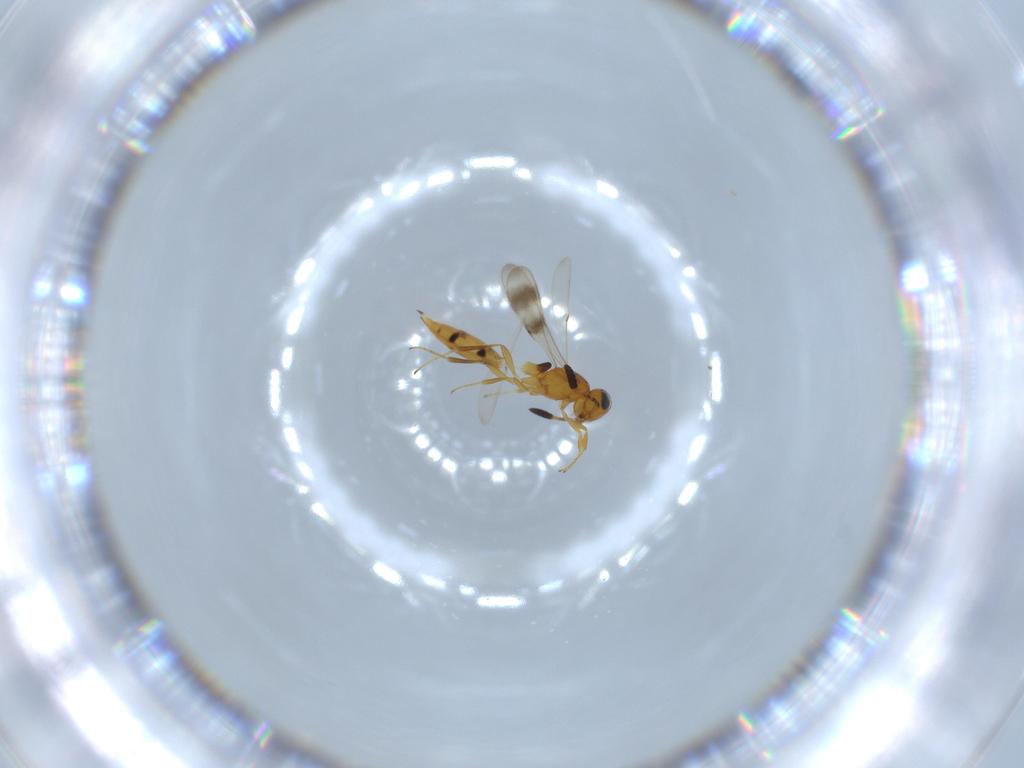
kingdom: Animalia
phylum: Arthropoda
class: Insecta
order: Hymenoptera
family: Scelionidae
